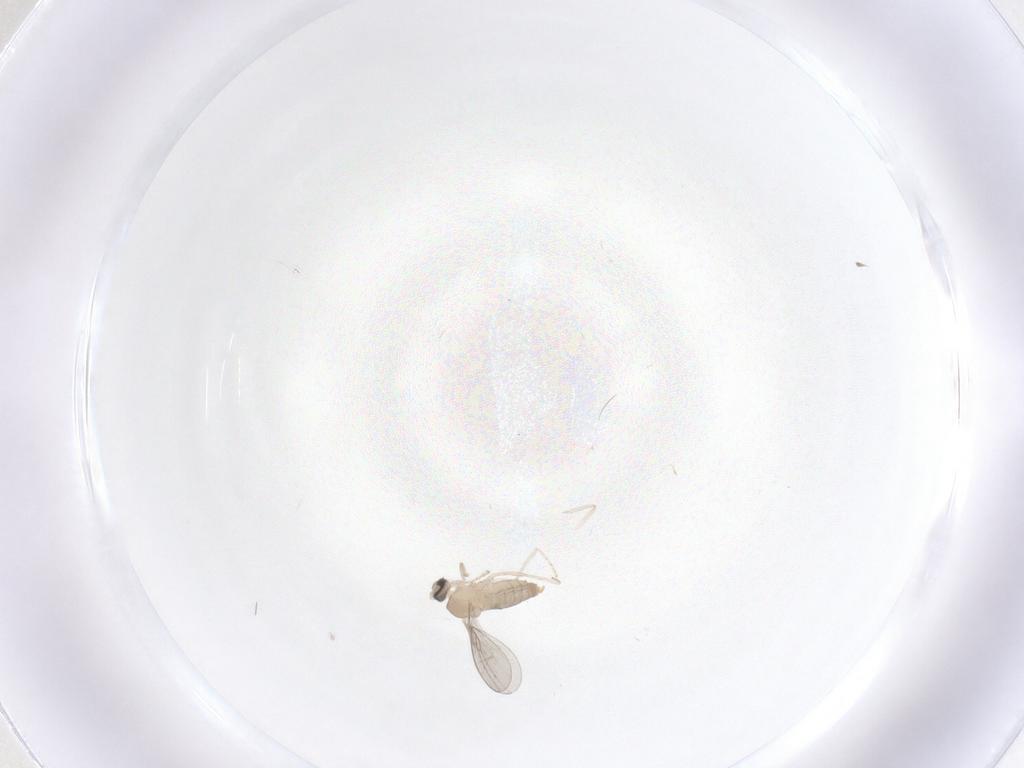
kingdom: Animalia
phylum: Arthropoda
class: Insecta
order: Diptera
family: Cecidomyiidae
